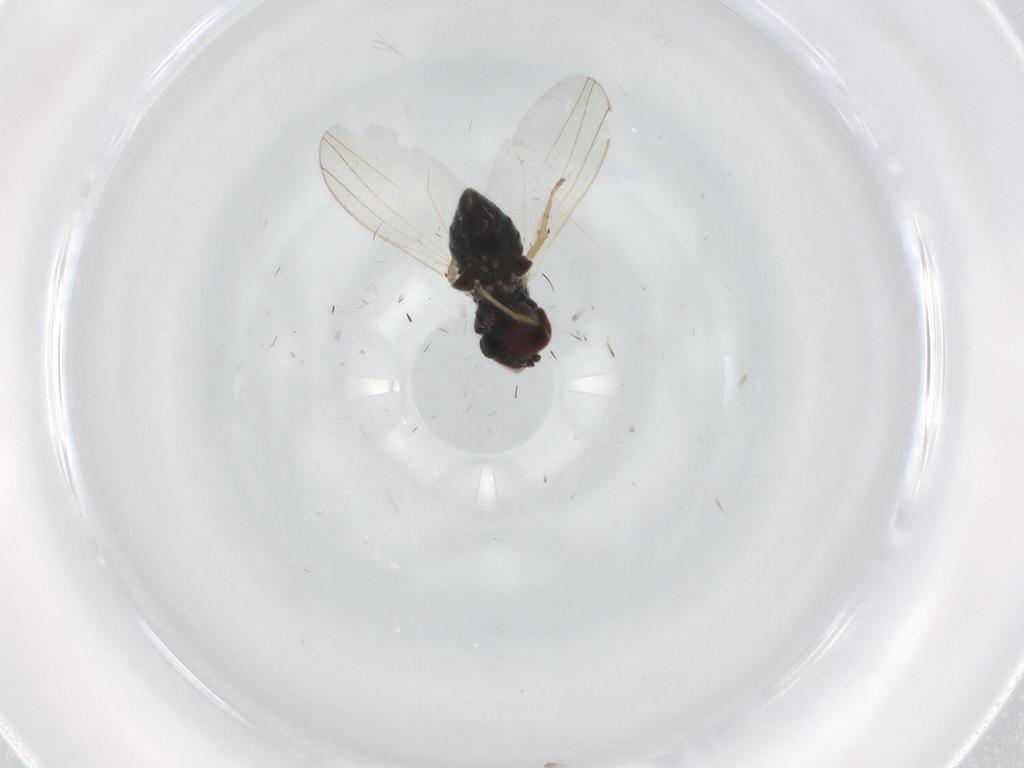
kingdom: Animalia
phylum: Arthropoda
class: Insecta
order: Diptera
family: Dolichopodidae
